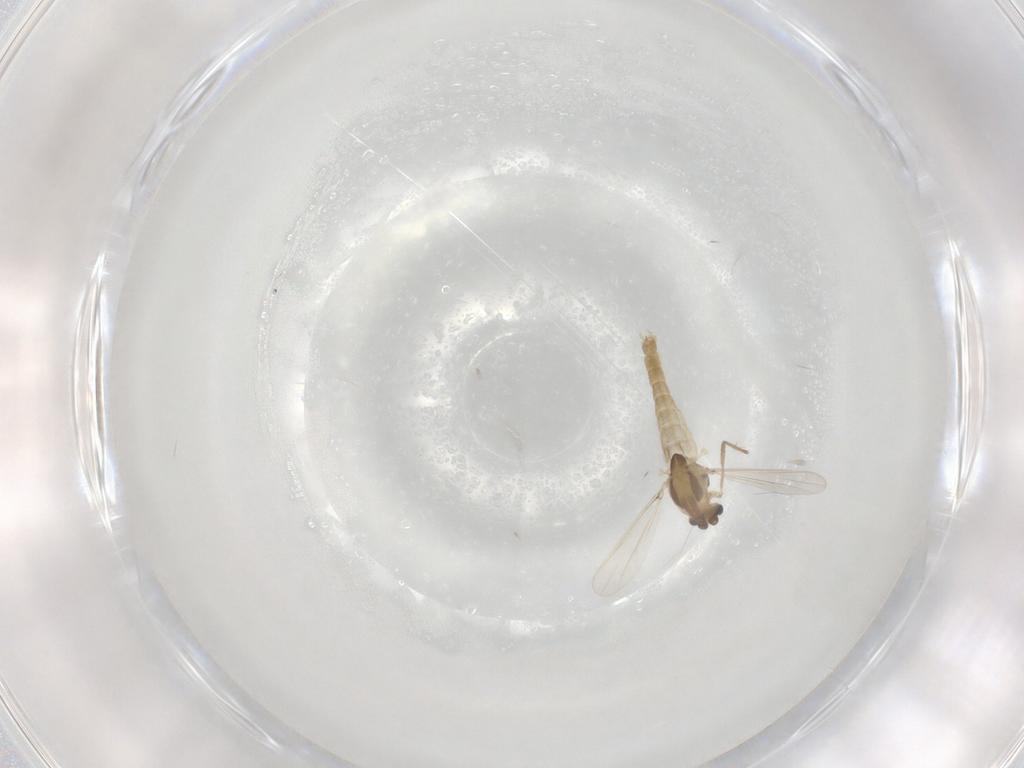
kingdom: Animalia
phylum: Arthropoda
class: Insecta
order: Diptera
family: Chironomidae
